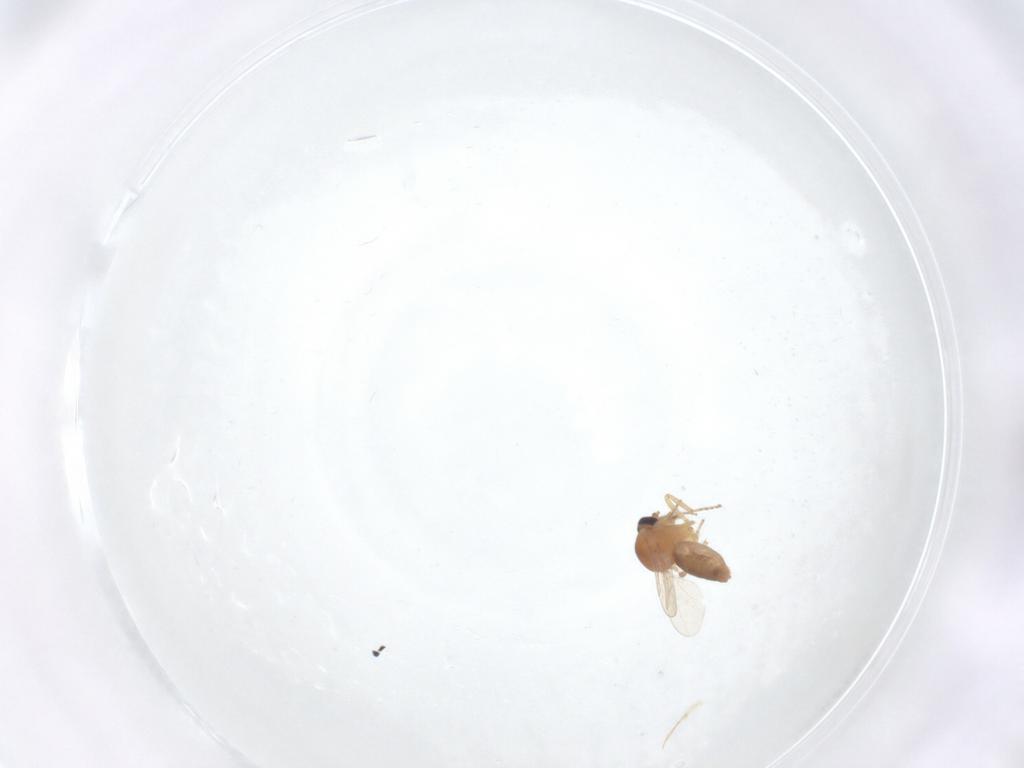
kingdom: Animalia
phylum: Arthropoda
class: Insecta
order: Diptera
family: Ceratopogonidae
